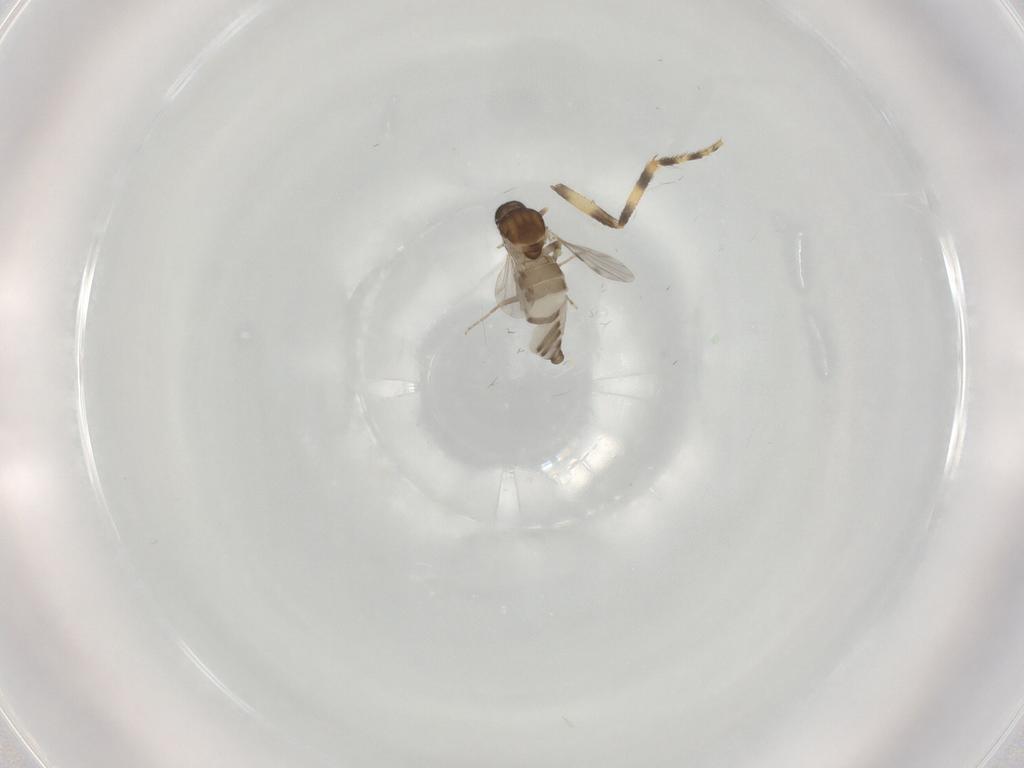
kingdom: Animalia
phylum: Arthropoda
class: Insecta
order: Diptera
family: Ceratopogonidae
